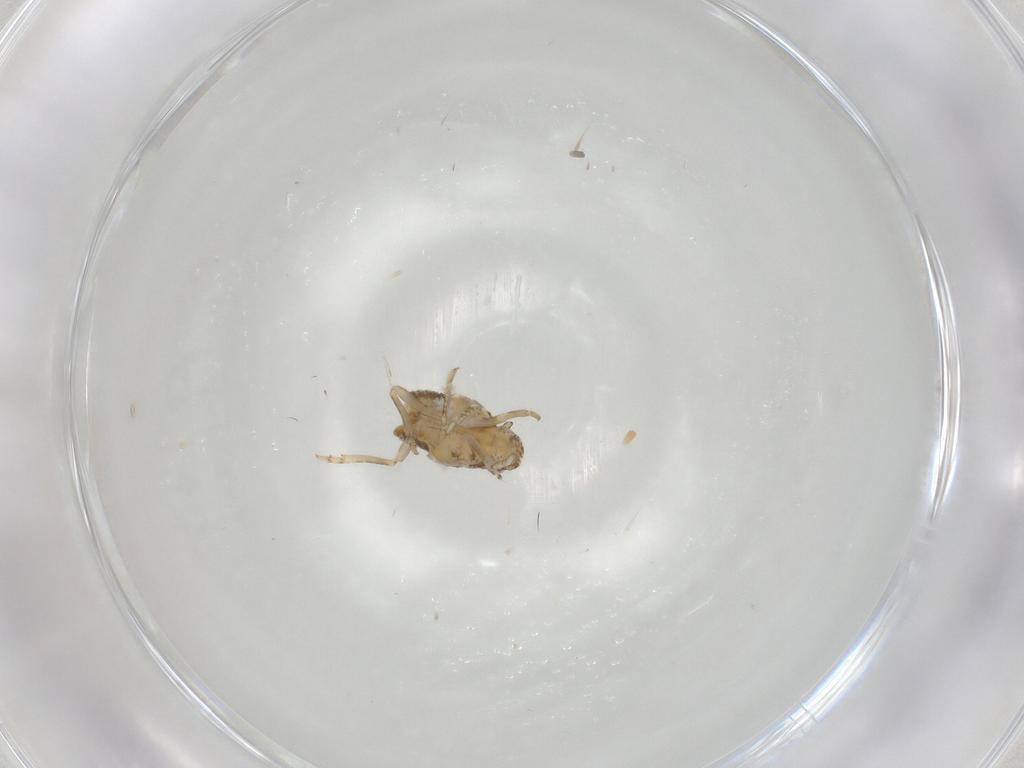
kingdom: Animalia
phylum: Arthropoda
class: Insecta
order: Hemiptera
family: Flatidae
